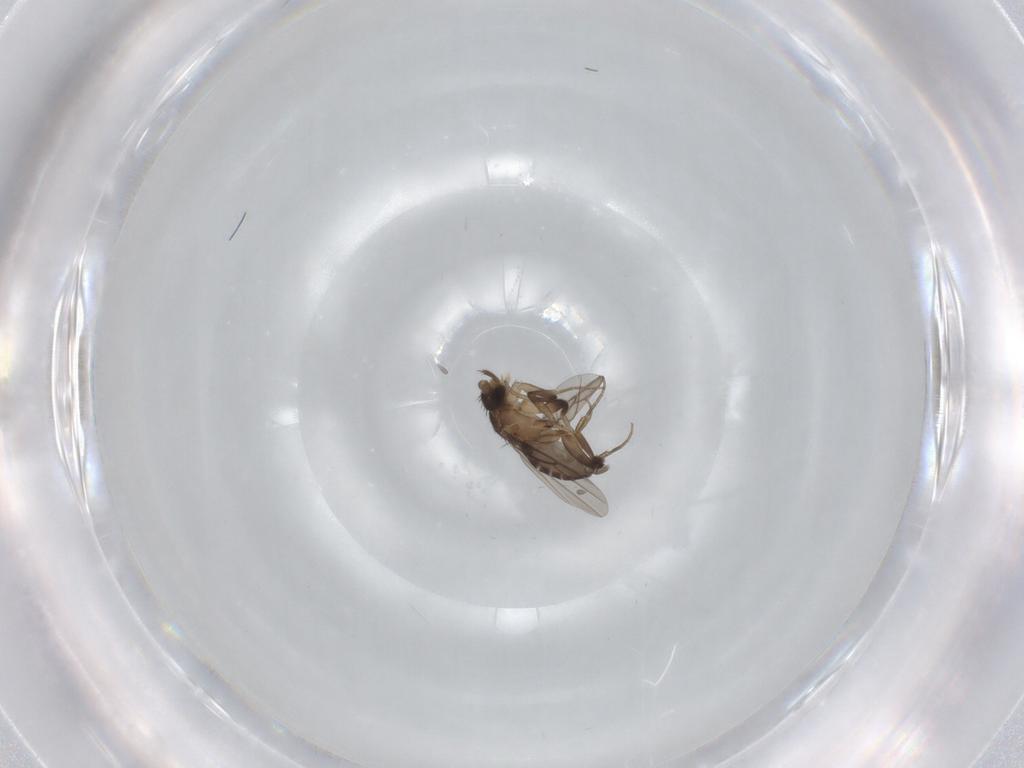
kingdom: Animalia
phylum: Arthropoda
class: Insecta
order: Diptera
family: Phoridae
